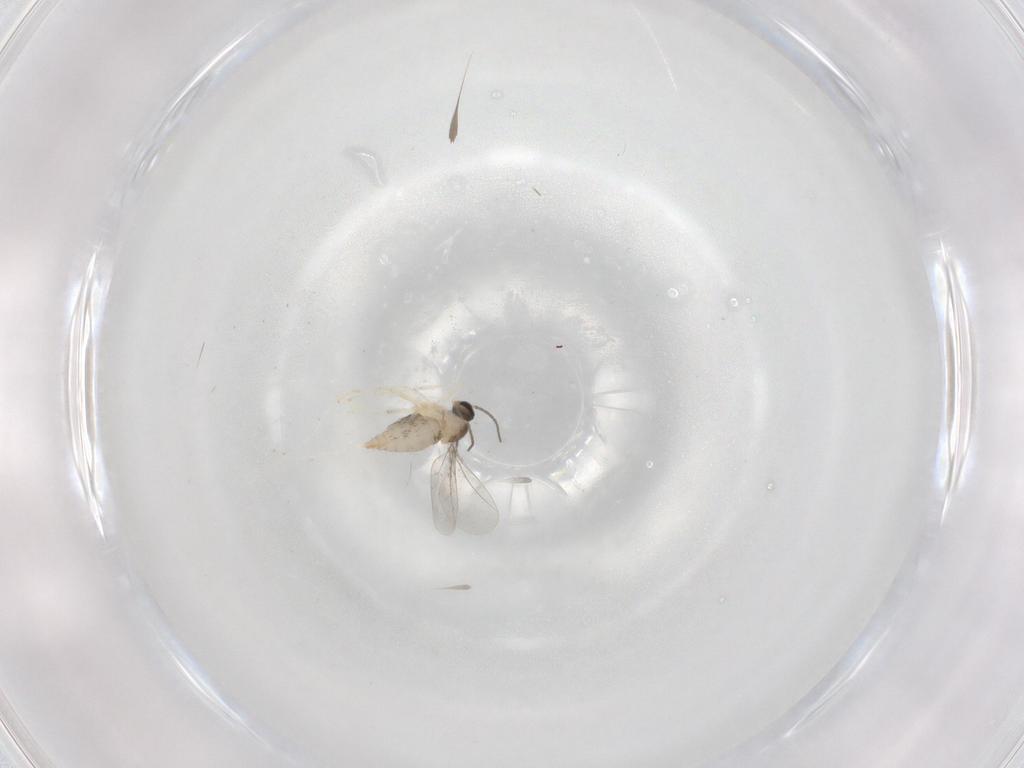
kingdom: Animalia
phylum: Arthropoda
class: Insecta
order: Diptera
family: Cecidomyiidae
